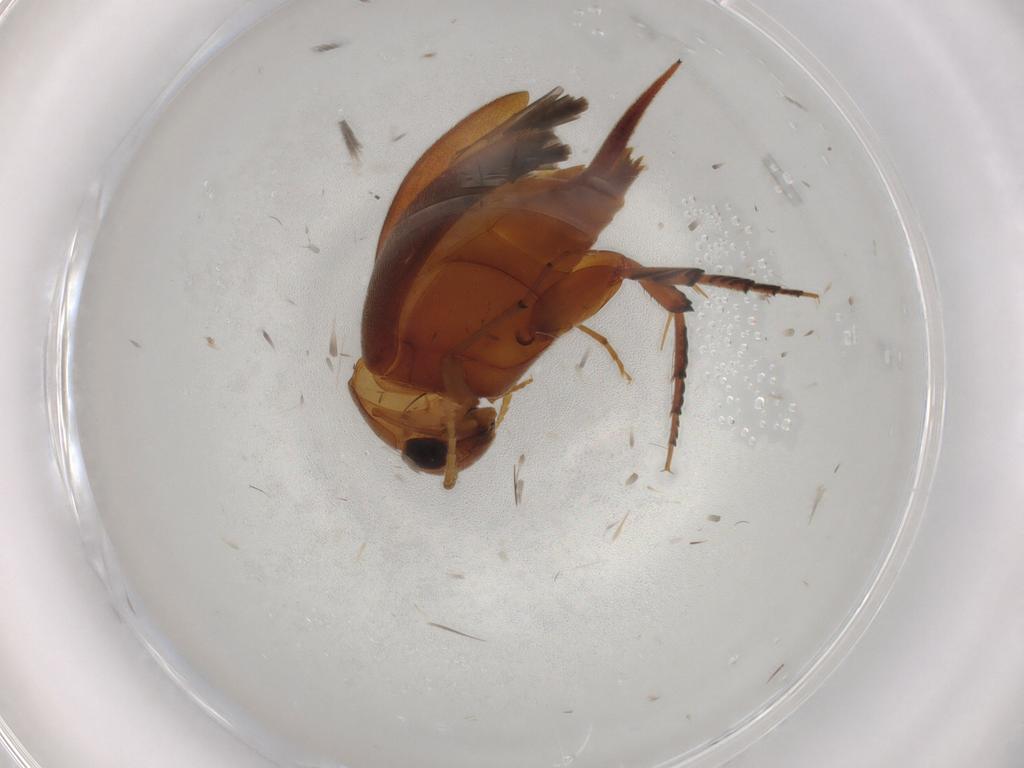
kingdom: Animalia
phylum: Arthropoda
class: Insecta
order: Coleoptera
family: Mordellidae
